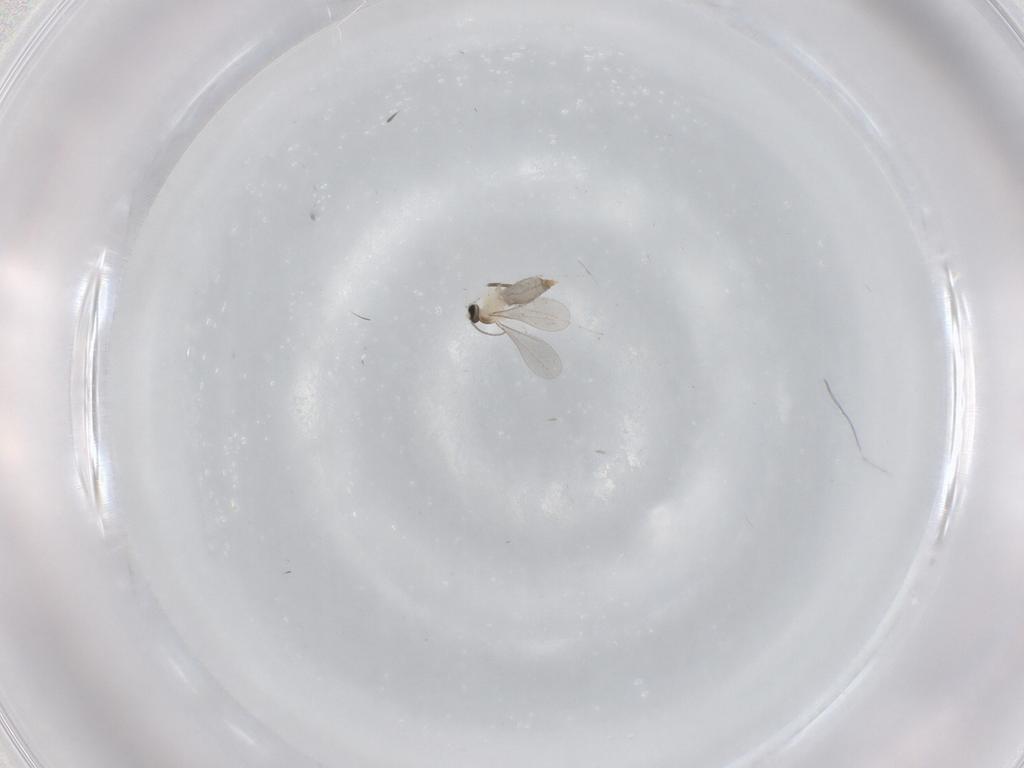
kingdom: Animalia
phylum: Arthropoda
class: Insecta
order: Diptera
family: Cecidomyiidae
